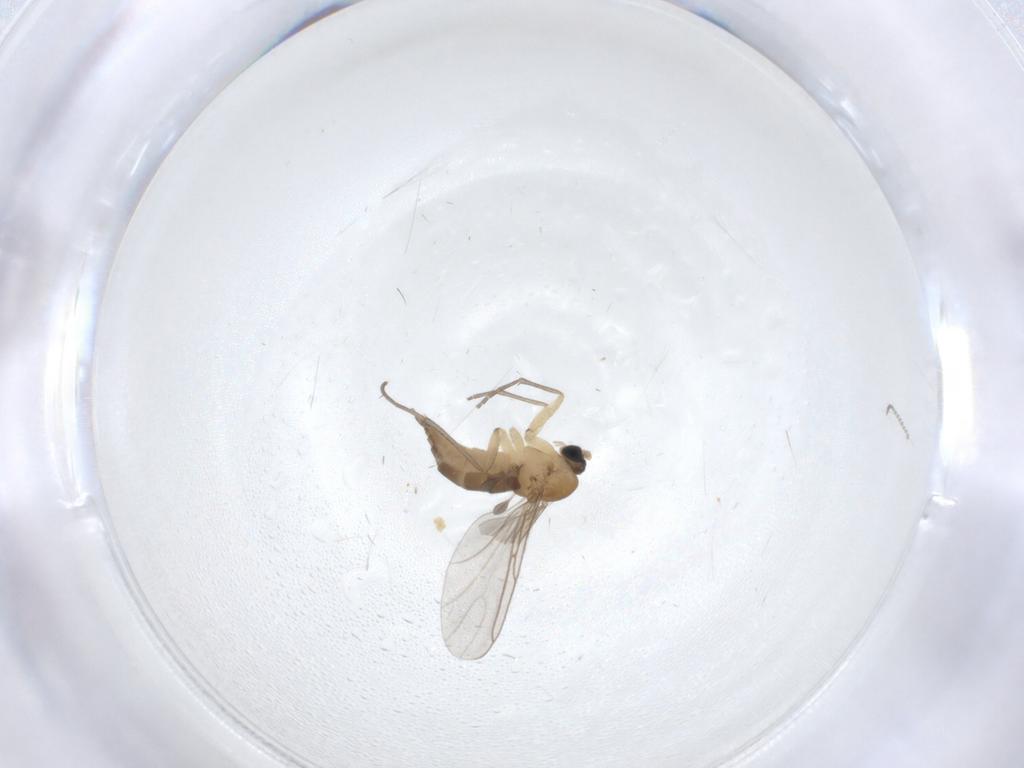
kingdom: Animalia
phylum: Arthropoda
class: Insecta
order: Diptera
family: Sciaridae
